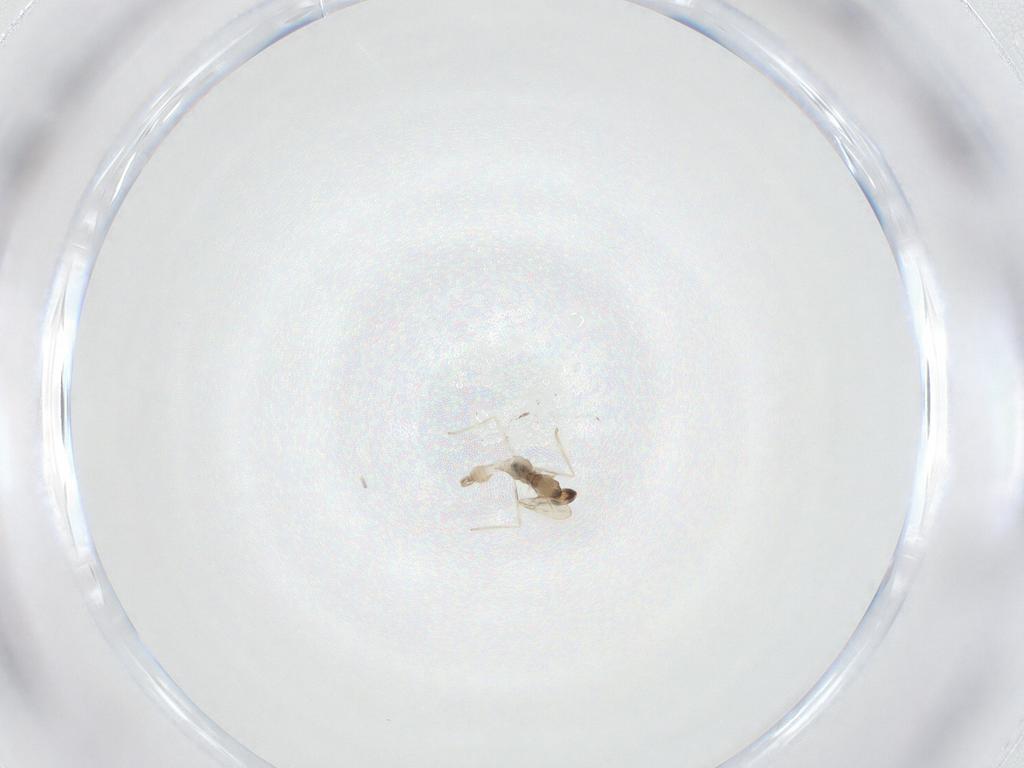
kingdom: Animalia
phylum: Arthropoda
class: Insecta
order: Diptera
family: Cecidomyiidae
